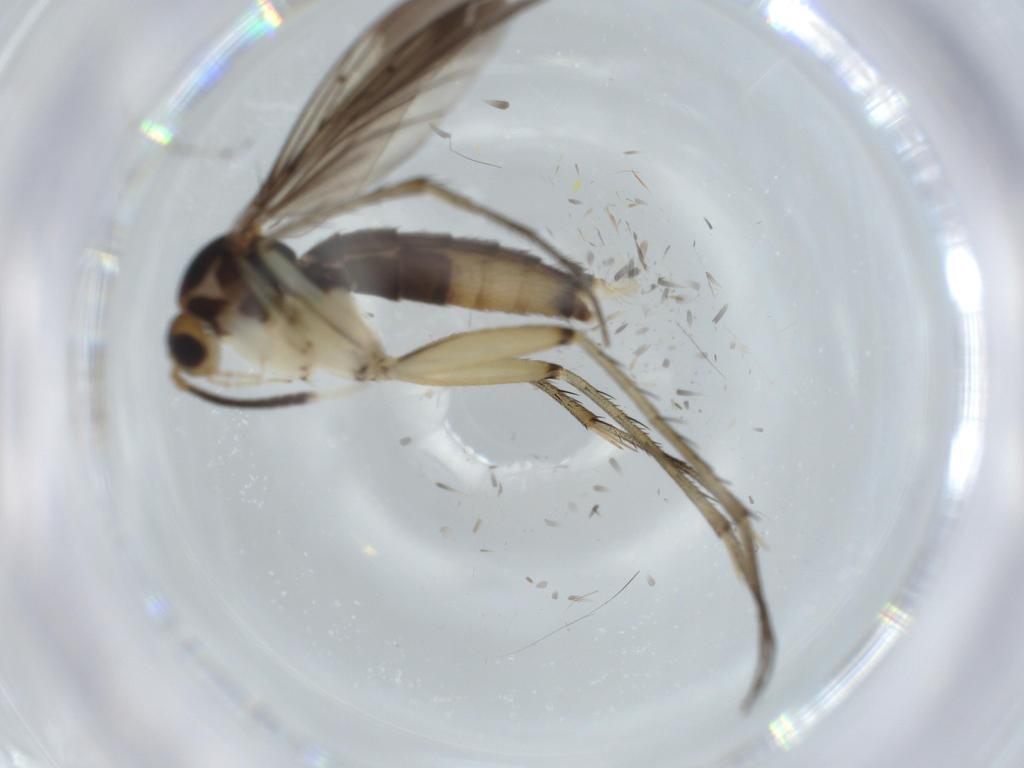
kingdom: Animalia
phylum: Arthropoda
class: Insecta
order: Diptera
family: Mycetophilidae
